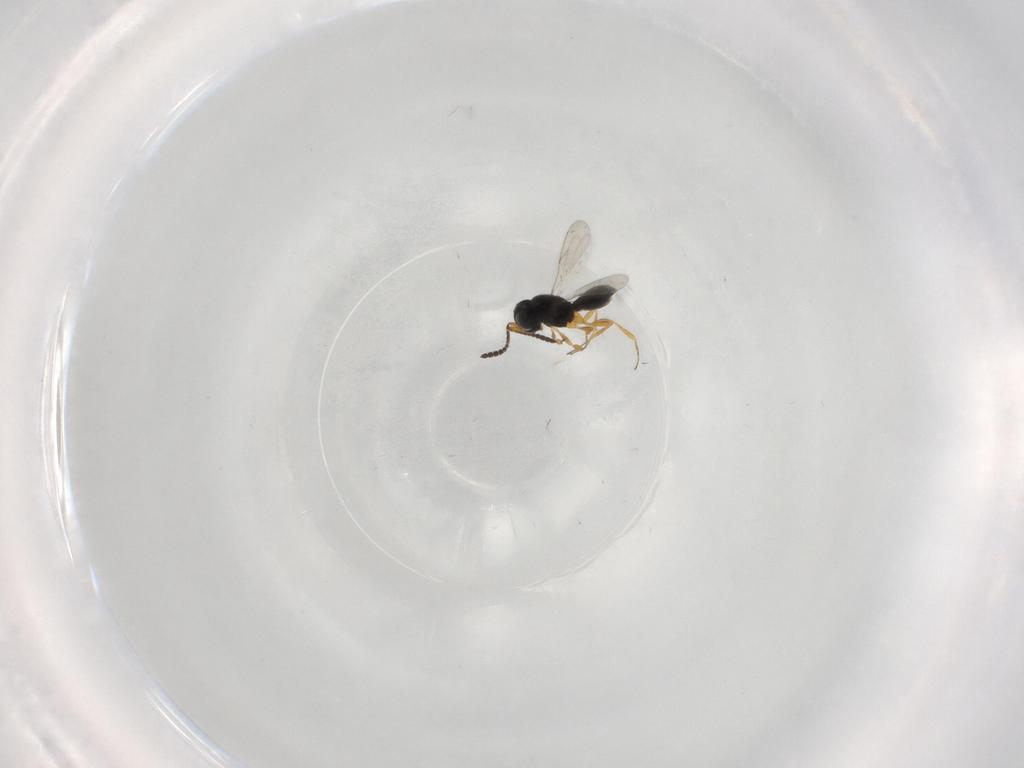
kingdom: Animalia
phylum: Arthropoda
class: Insecta
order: Hymenoptera
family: Scelionidae
